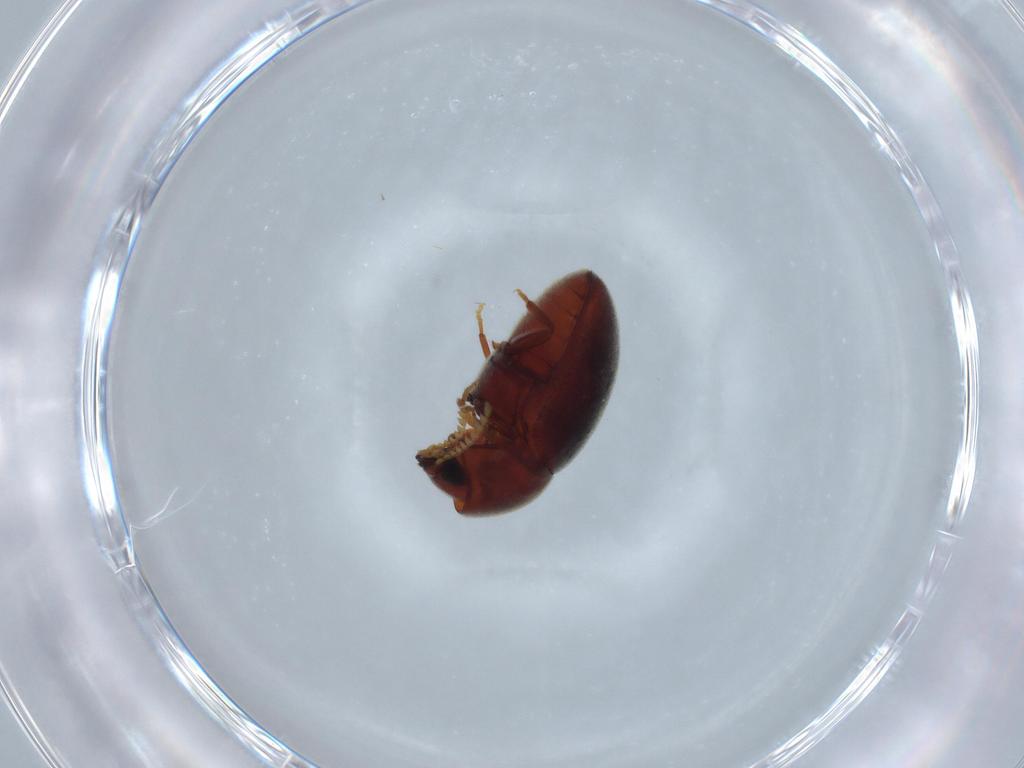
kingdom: Animalia
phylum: Arthropoda
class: Insecta
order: Coleoptera
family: Ptinidae
